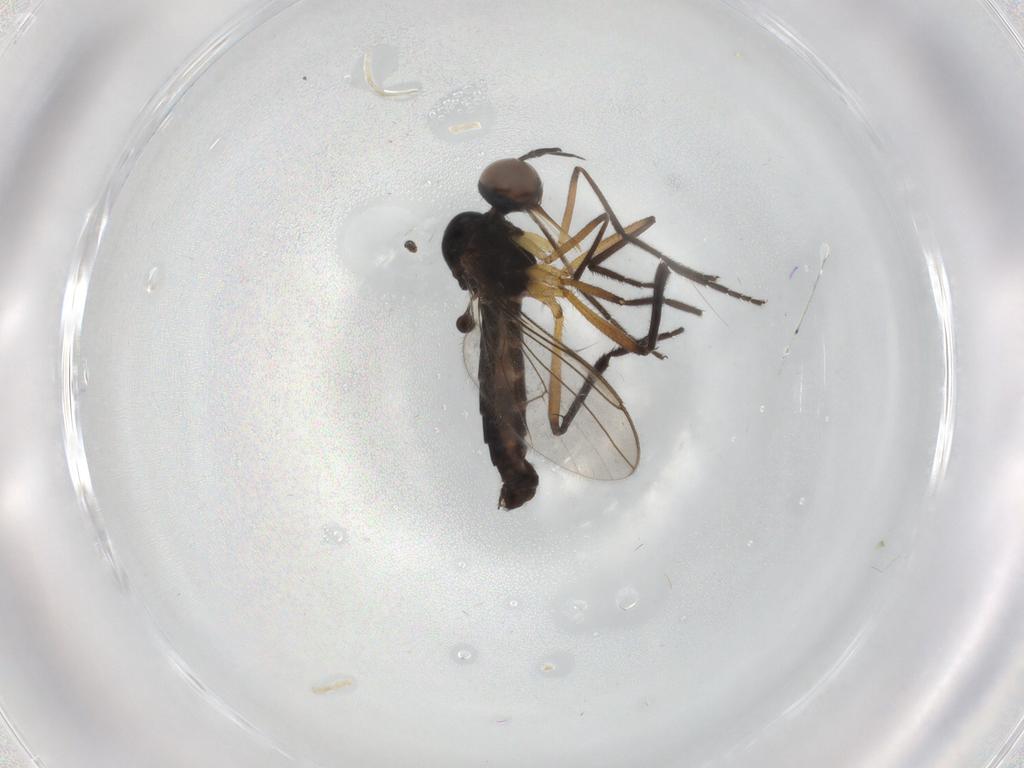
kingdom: Animalia
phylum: Arthropoda
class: Insecta
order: Diptera
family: Empididae
